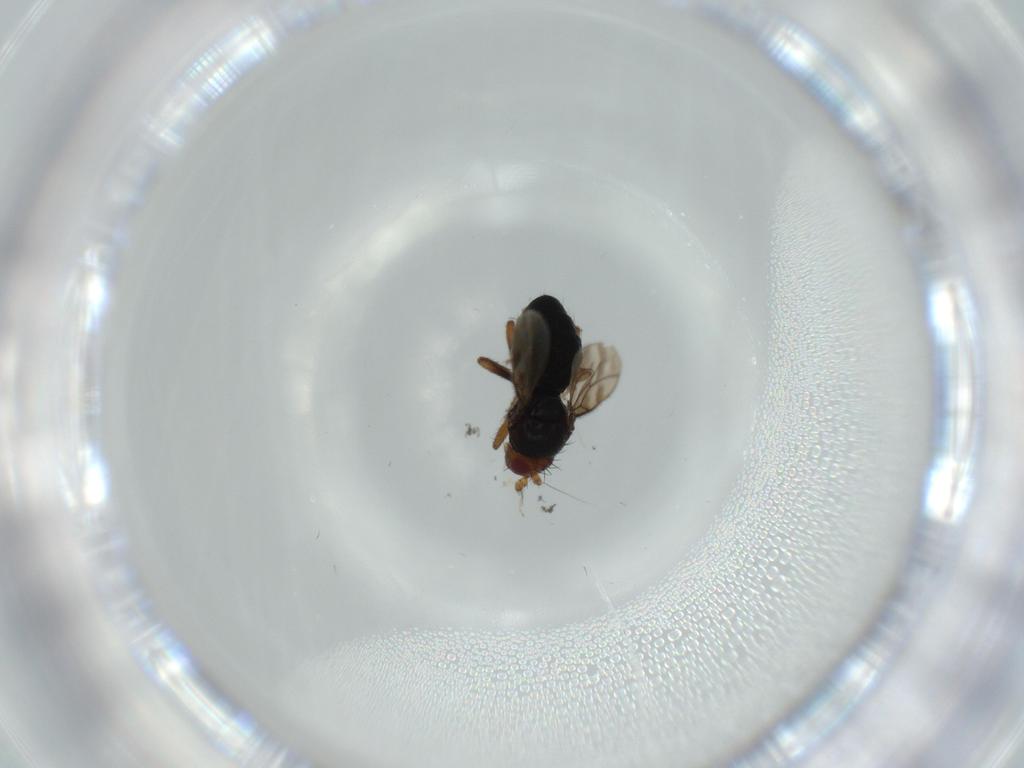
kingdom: Animalia
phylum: Arthropoda
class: Insecta
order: Diptera
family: Sphaeroceridae
